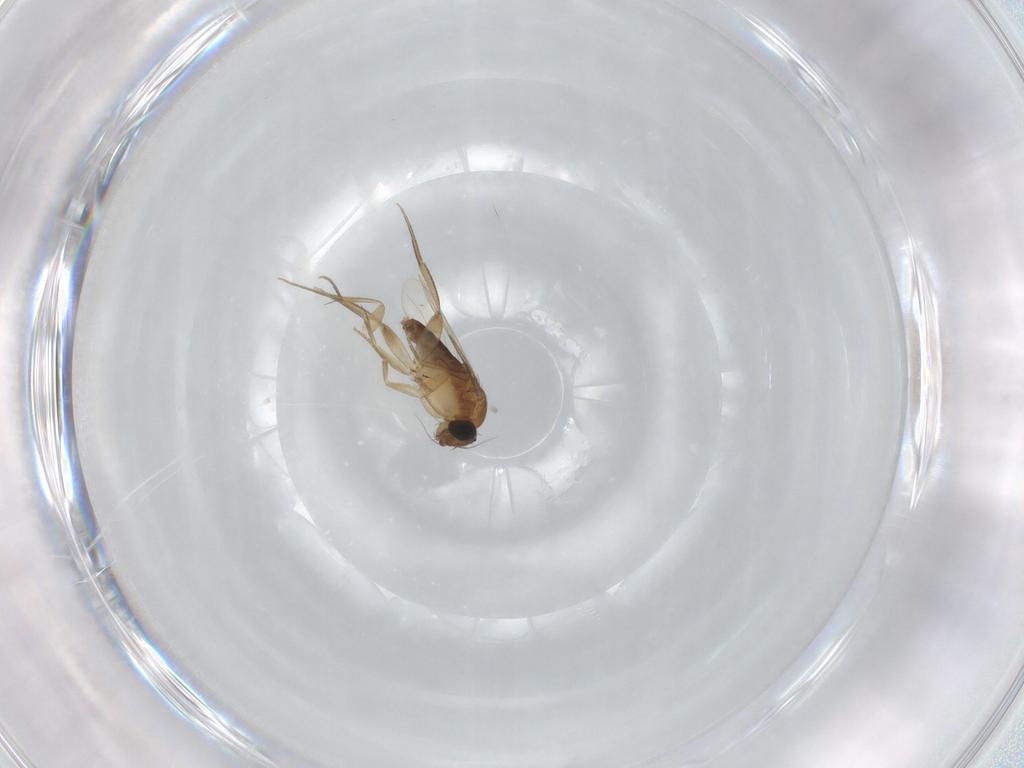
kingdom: Animalia
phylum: Arthropoda
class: Insecta
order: Diptera
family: Phoridae
